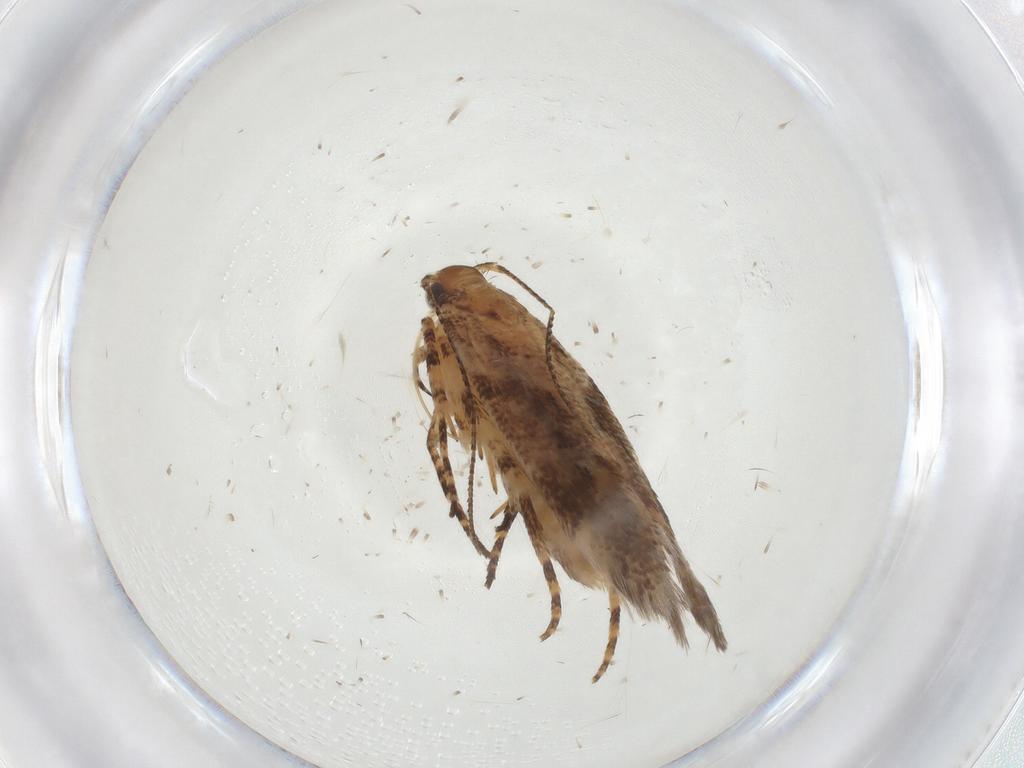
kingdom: Animalia
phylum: Arthropoda
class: Insecta
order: Lepidoptera
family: Gelechiidae
